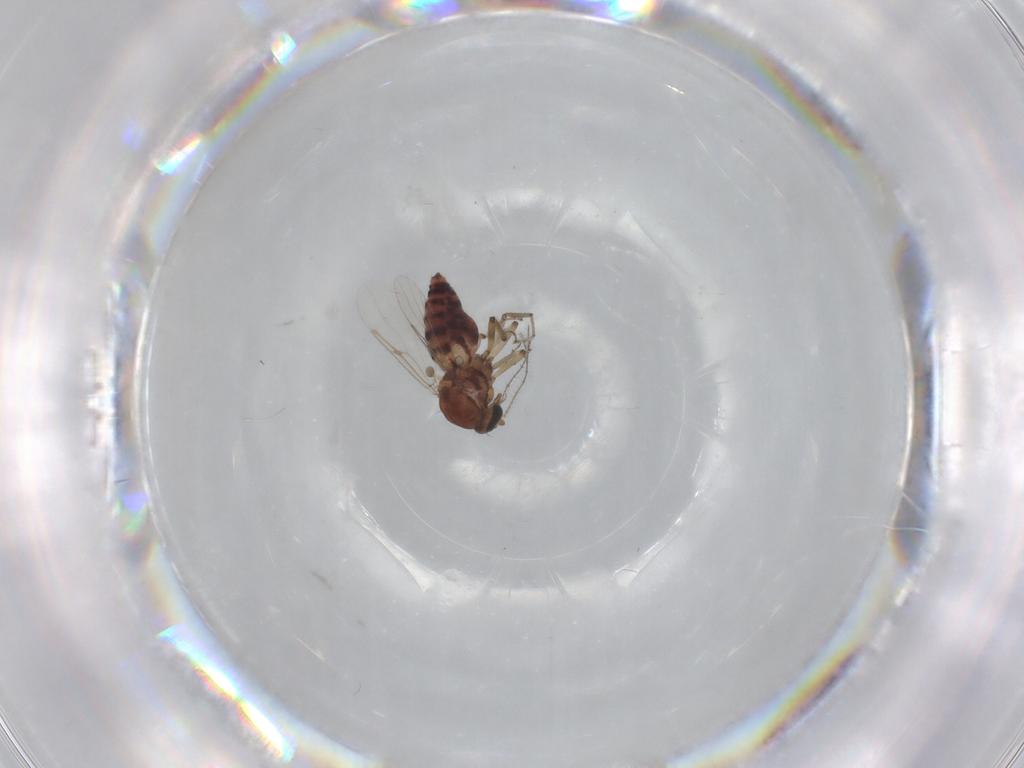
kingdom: Animalia
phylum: Arthropoda
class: Insecta
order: Diptera
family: Ceratopogonidae
